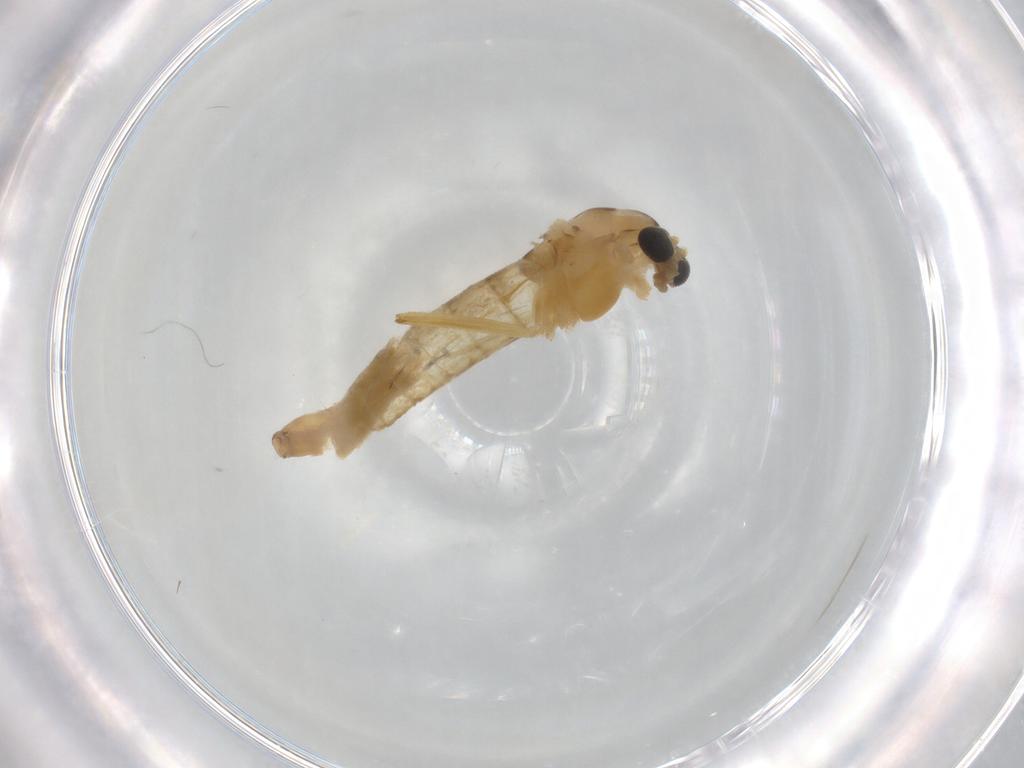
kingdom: Animalia
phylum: Arthropoda
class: Insecta
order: Diptera
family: Chironomidae
